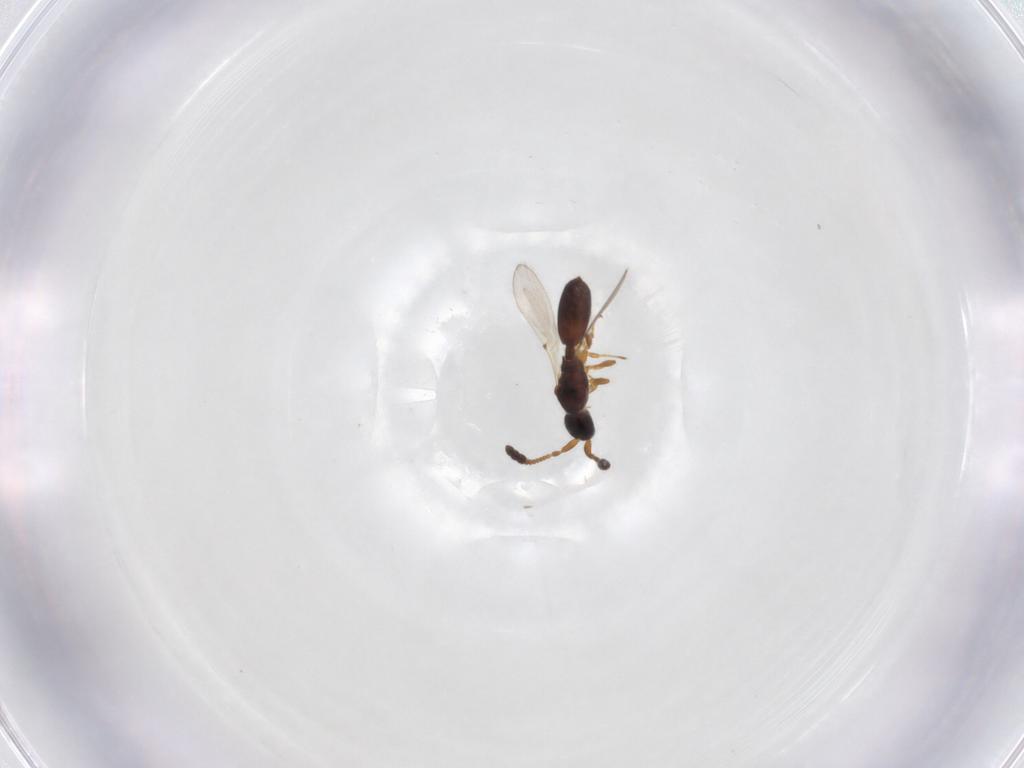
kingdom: Animalia
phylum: Arthropoda
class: Insecta
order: Hymenoptera
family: Diapriidae
